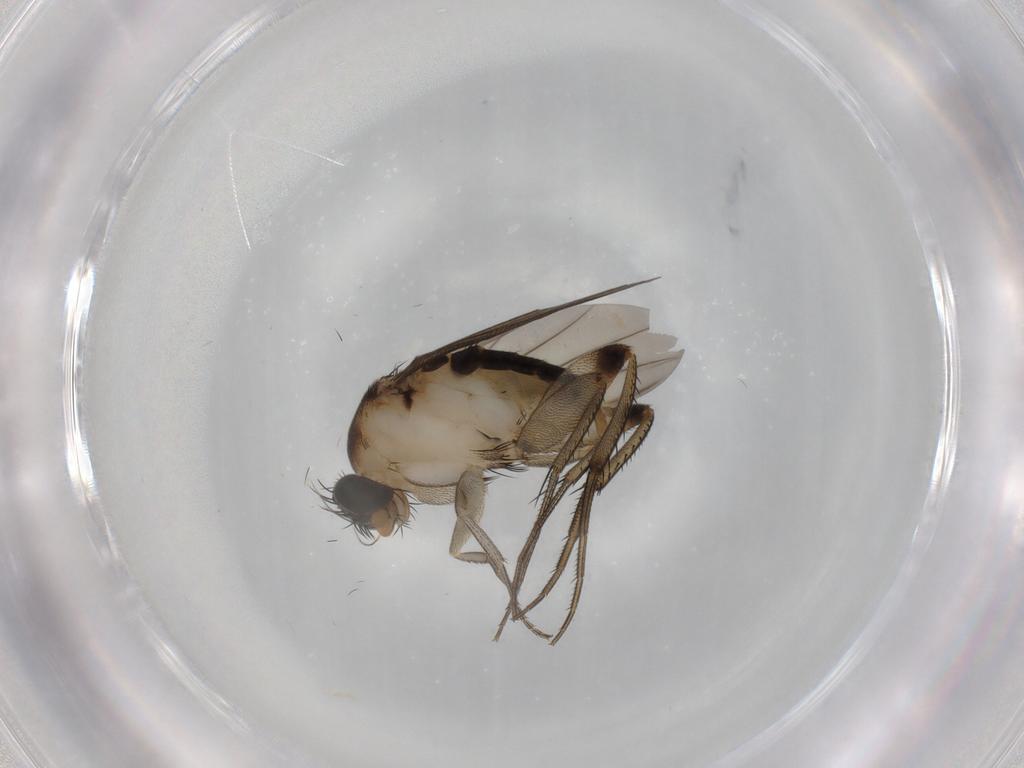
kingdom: Animalia
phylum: Arthropoda
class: Insecta
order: Diptera
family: Phoridae
